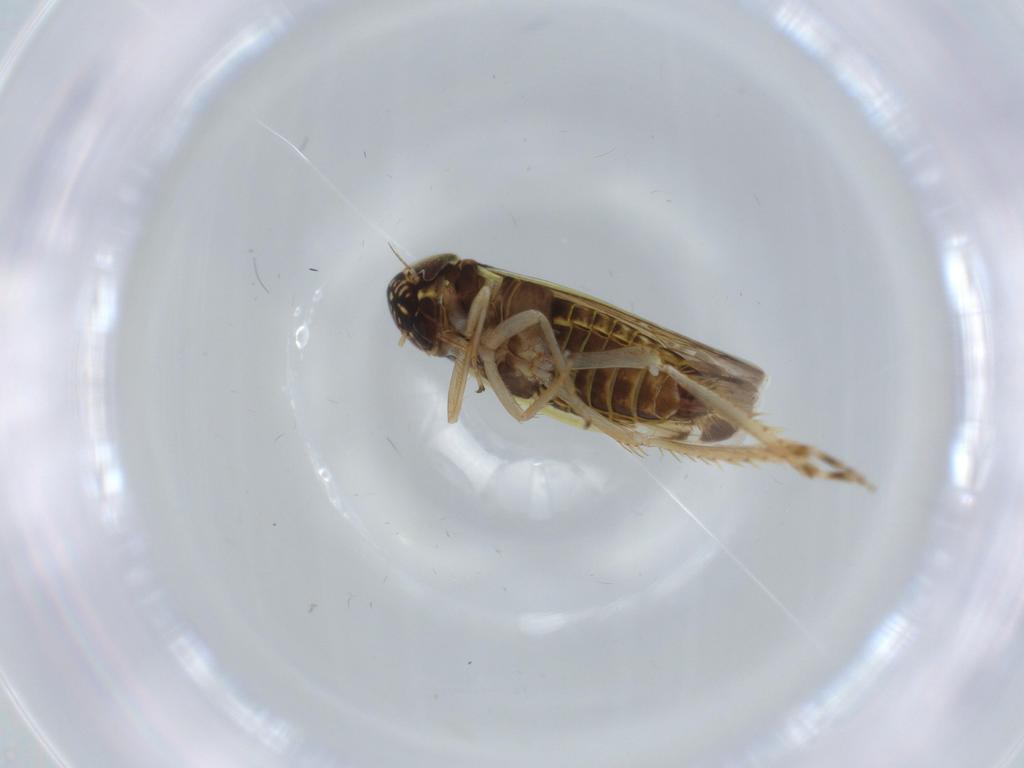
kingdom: Animalia
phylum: Arthropoda
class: Insecta
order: Hemiptera
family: Cicadellidae
